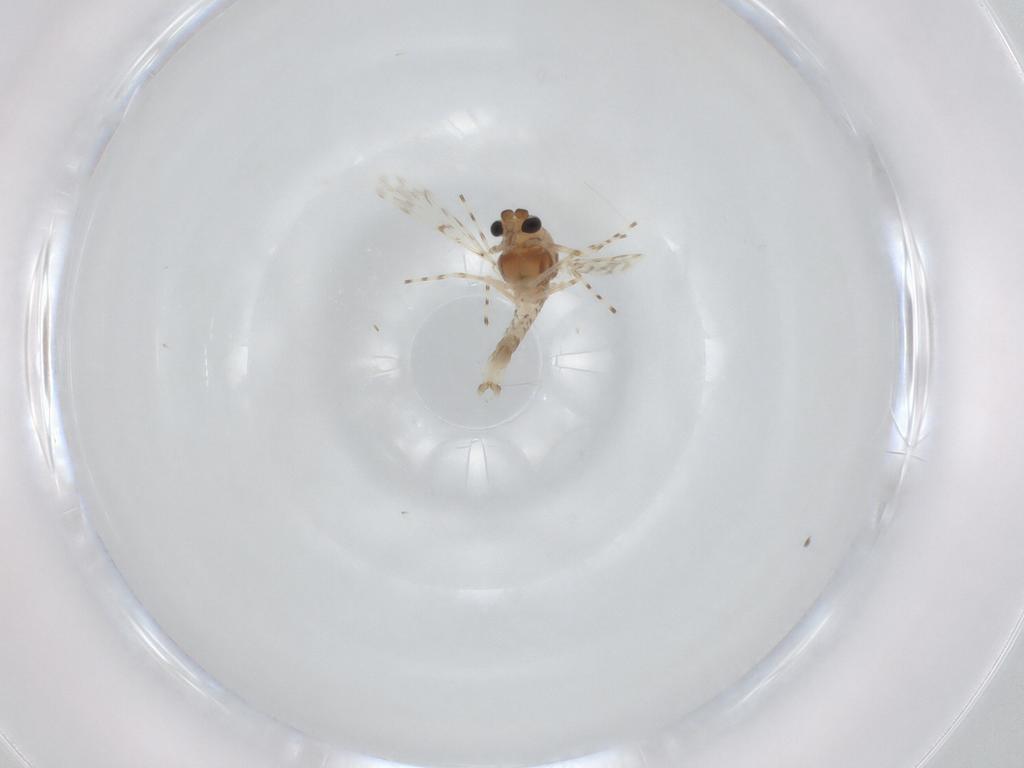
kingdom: Animalia
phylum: Arthropoda
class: Insecta
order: Diptera
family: Chironomidae
